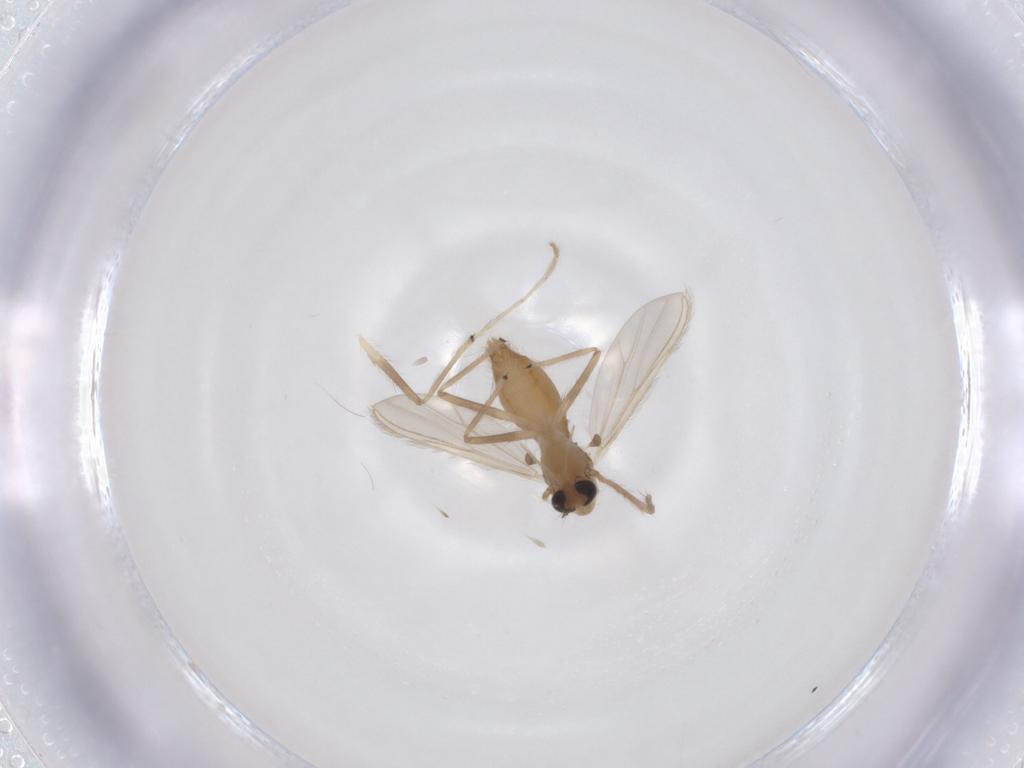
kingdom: Animalia
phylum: Arthropoda
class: Insecta
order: Diptera
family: Chironomidae
